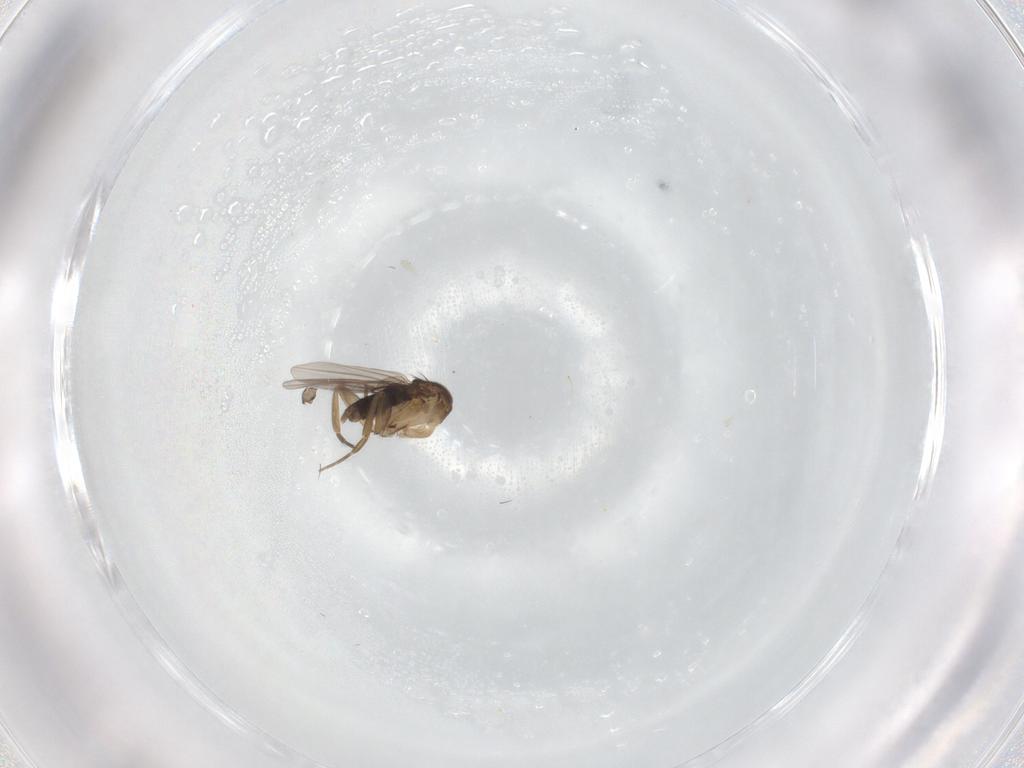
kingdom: Animalia
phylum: Arthropoda
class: Insecta
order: Diptera
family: Phoridae
